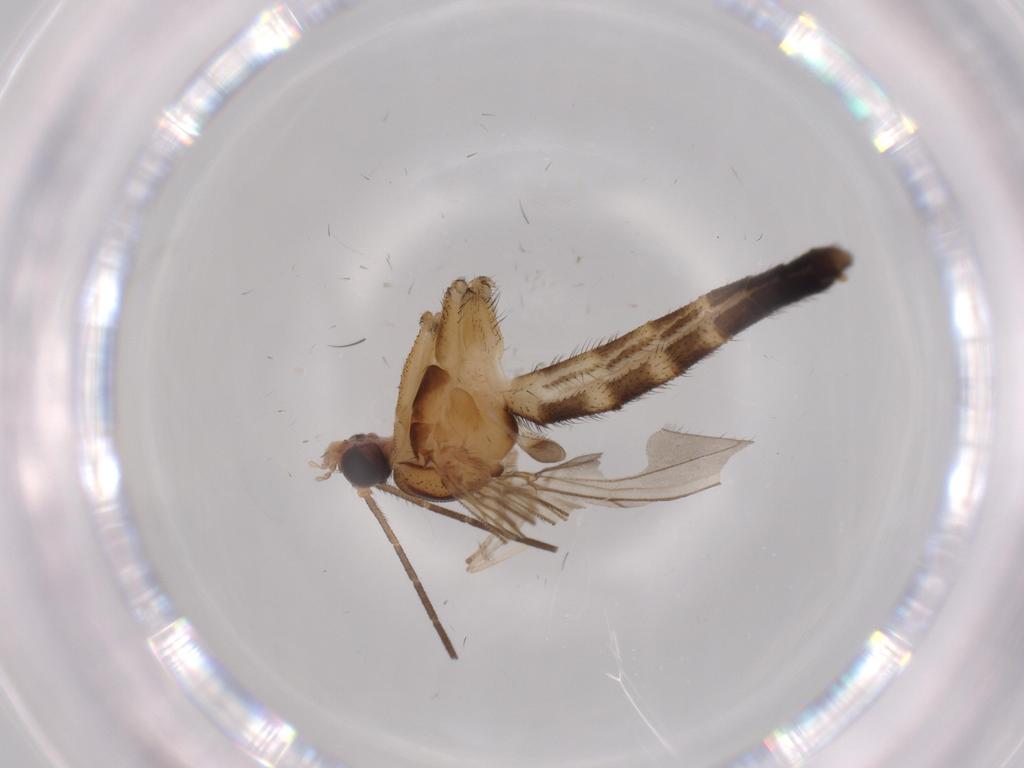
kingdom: Animalia
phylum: Arthropoda
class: Insecta
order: Diptera
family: Keroplatidae
